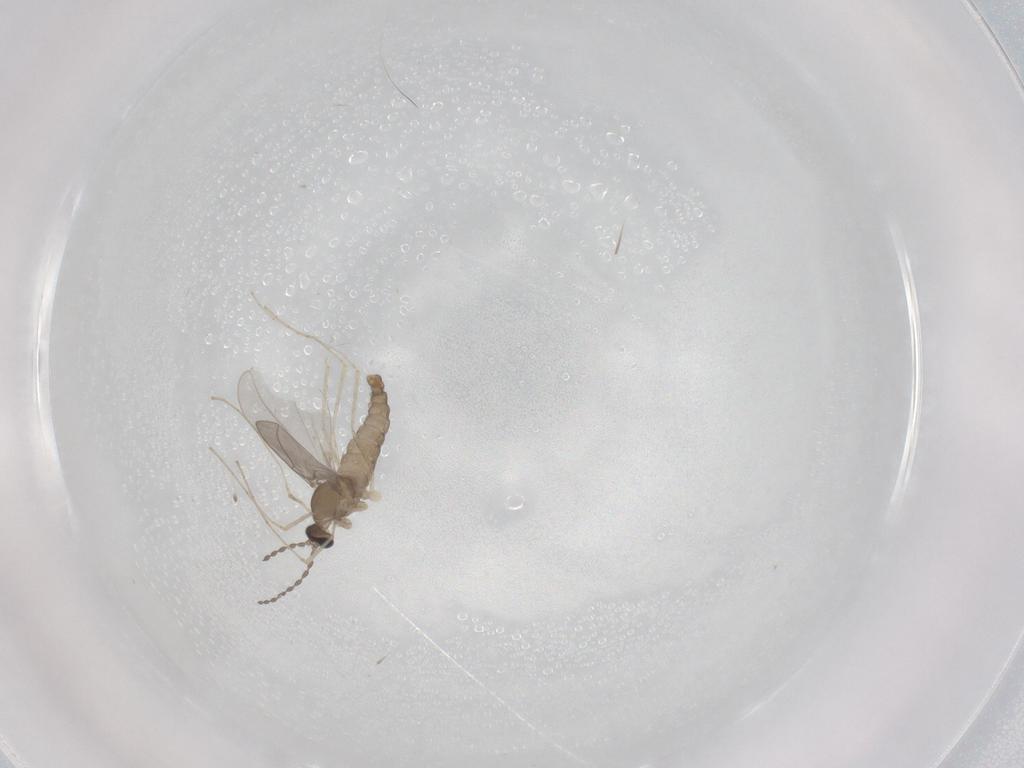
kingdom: Animalia
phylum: Arthropoda
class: Insecta
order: Diptera
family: Cecidomyiidae
